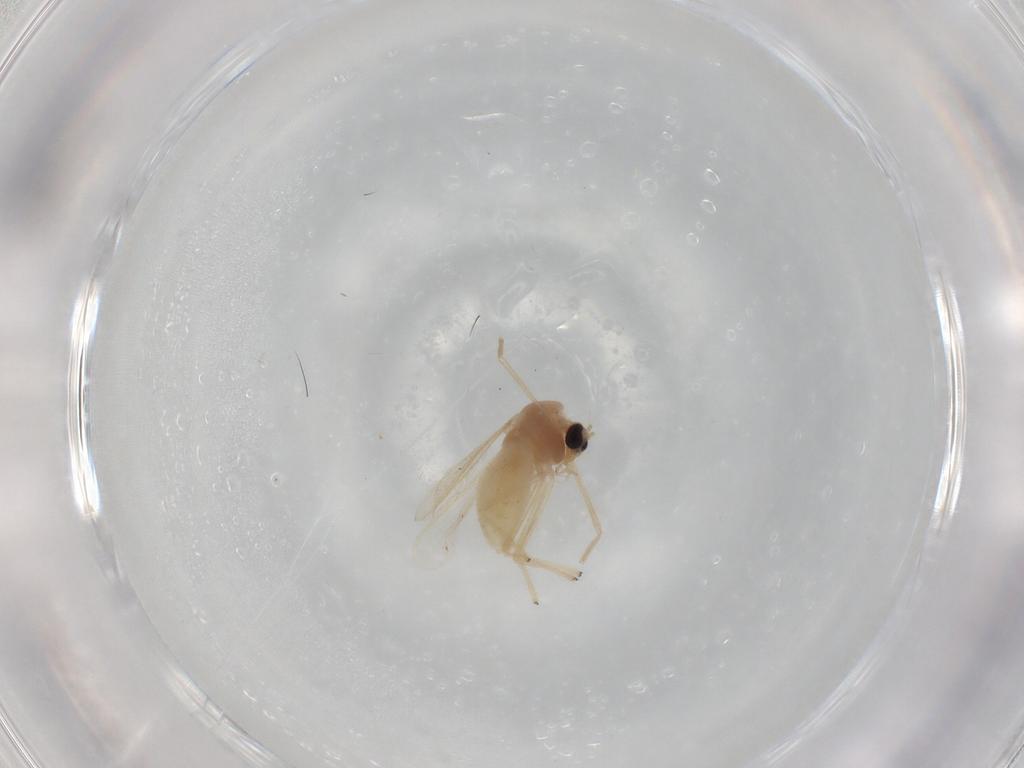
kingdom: Animalia
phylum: Arthropoda
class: Insecta
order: Diptera
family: Chironomidae
